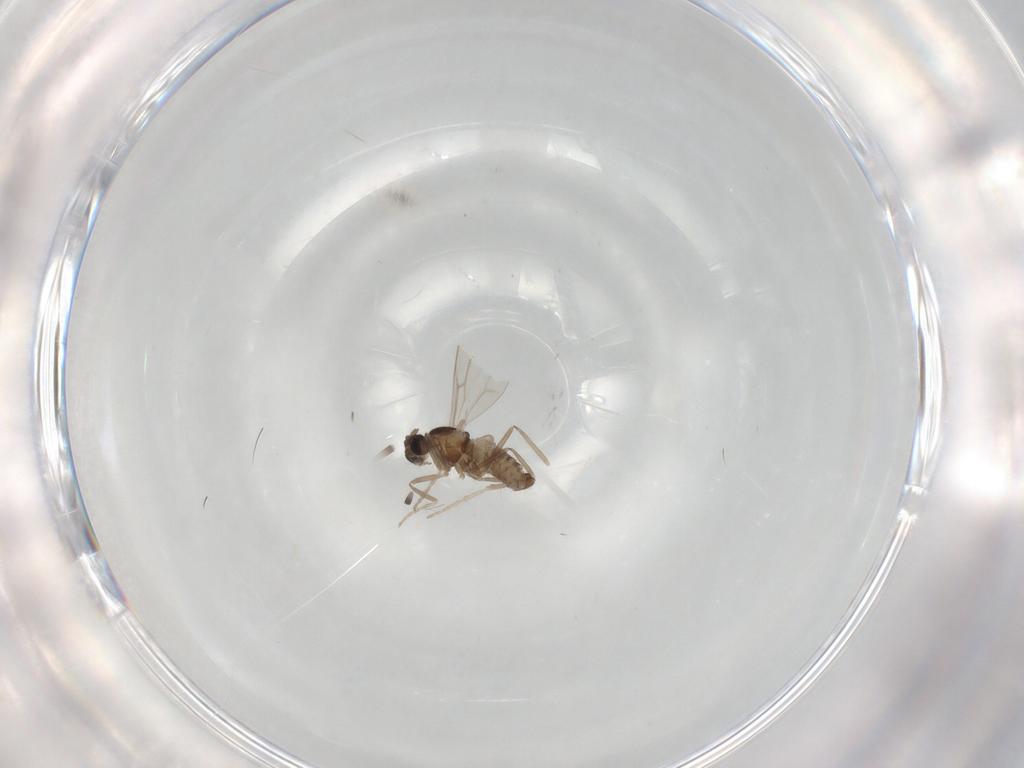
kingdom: Animalia
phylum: Arthropoda
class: Insecta
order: Diptera
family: Cecidomyiidae
